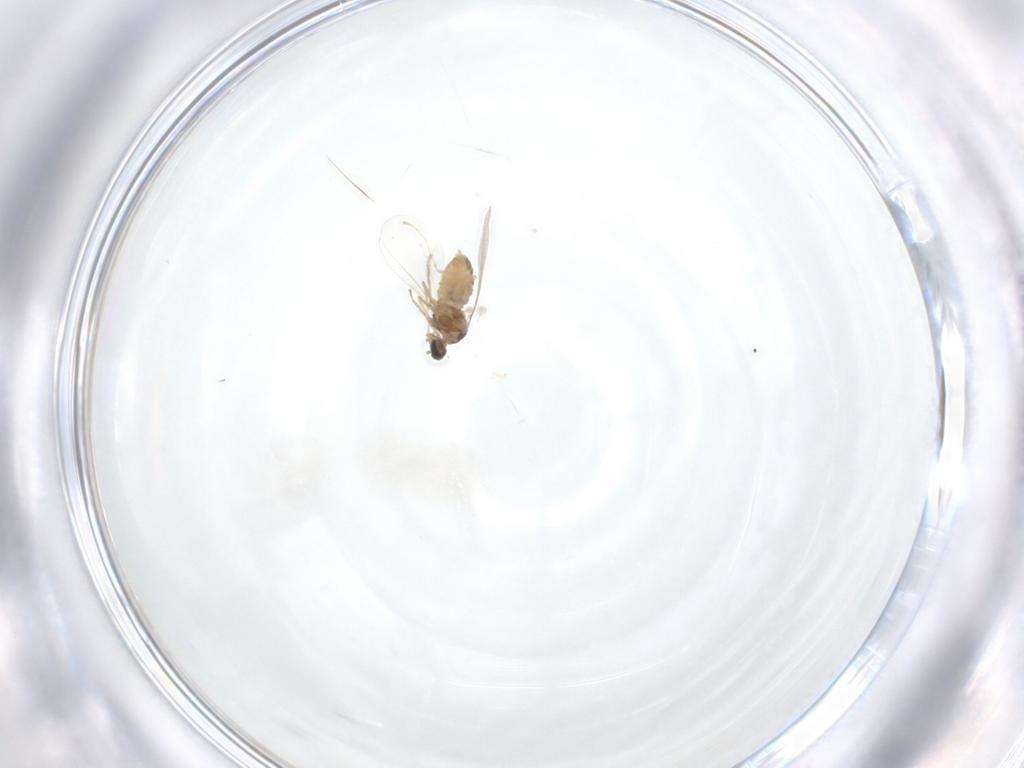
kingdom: Animalia
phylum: Arthropoda
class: Insecta
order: Diptera
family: Cecidomyiidae
